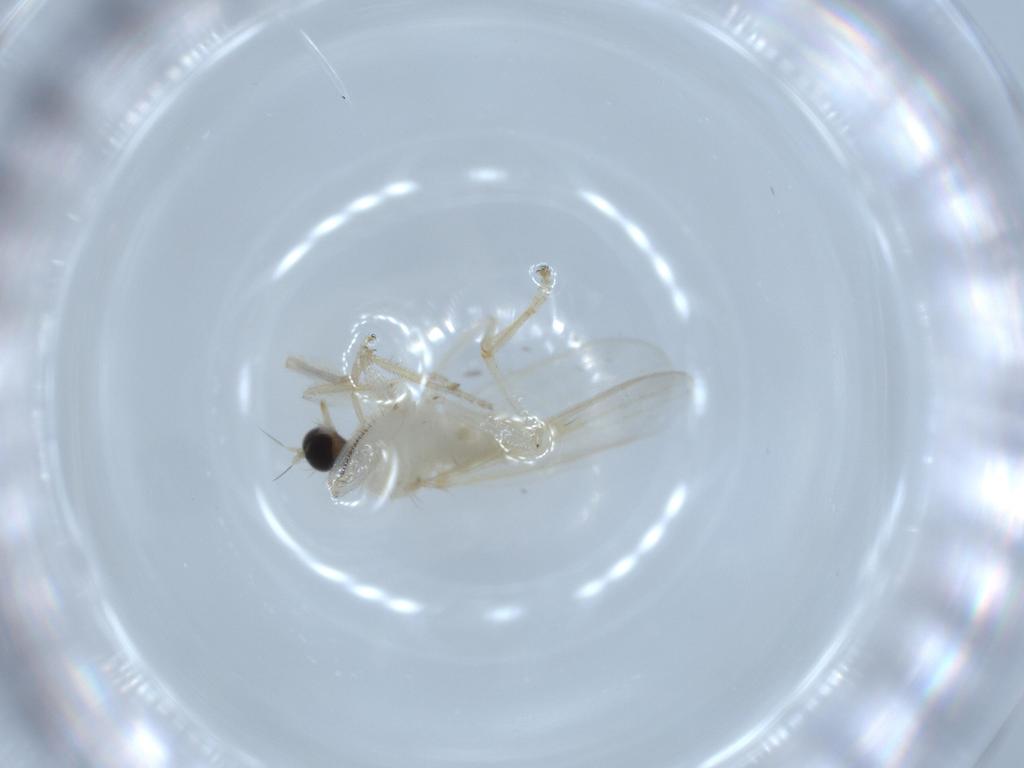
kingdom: Animalia
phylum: Arthropoda
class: Insecta
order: Diptera
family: Hybotidae
